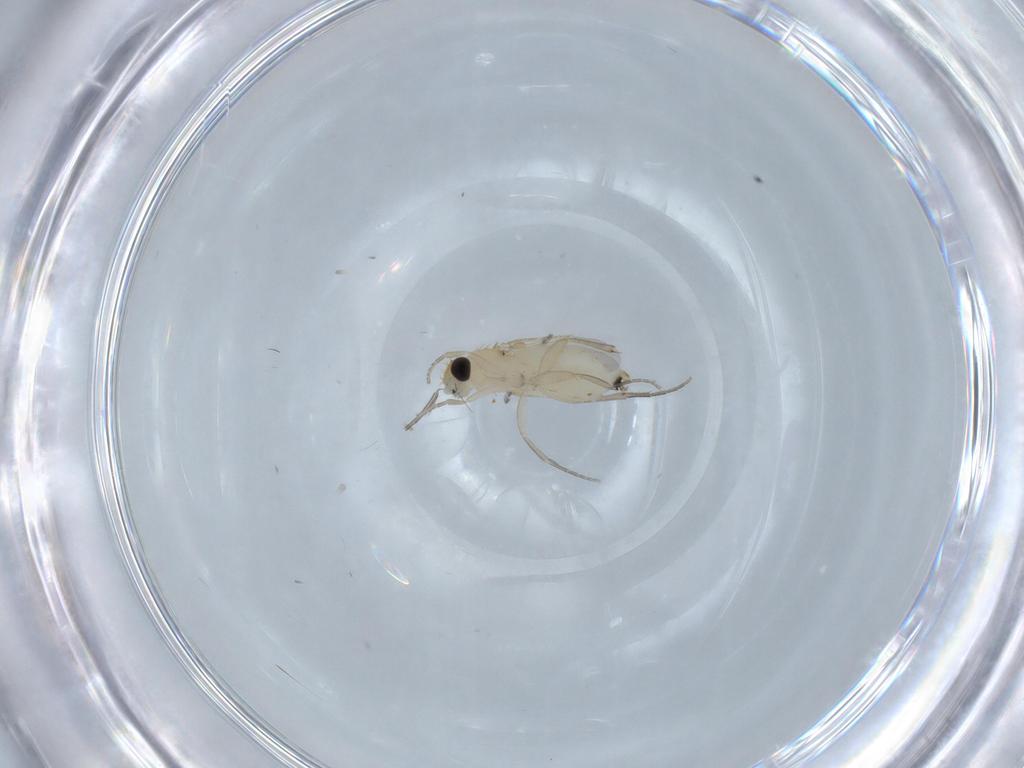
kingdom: Animalia
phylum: Arthropoda
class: Insecta
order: Diptera
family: Phoridae
